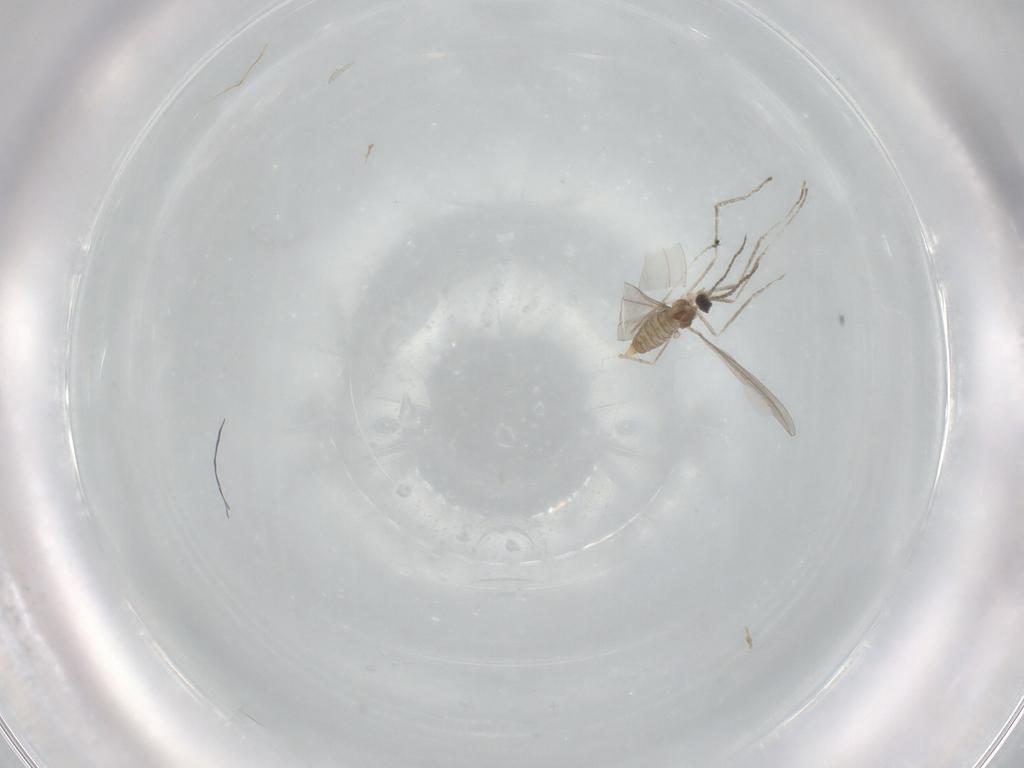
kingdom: Animalia
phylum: Arthropoda
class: Insecta
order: Diptera
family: Cecidomyiidae
